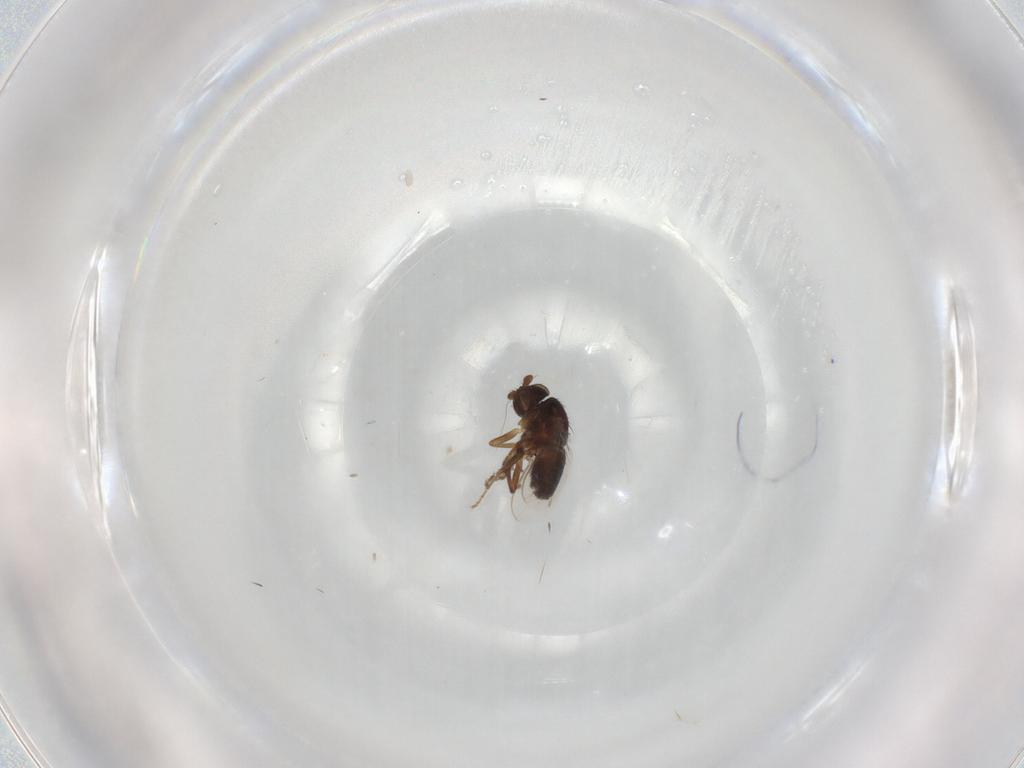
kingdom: Animalia
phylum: Arthropoda
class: Insecta
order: Diptera
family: Sphaeroceridae
